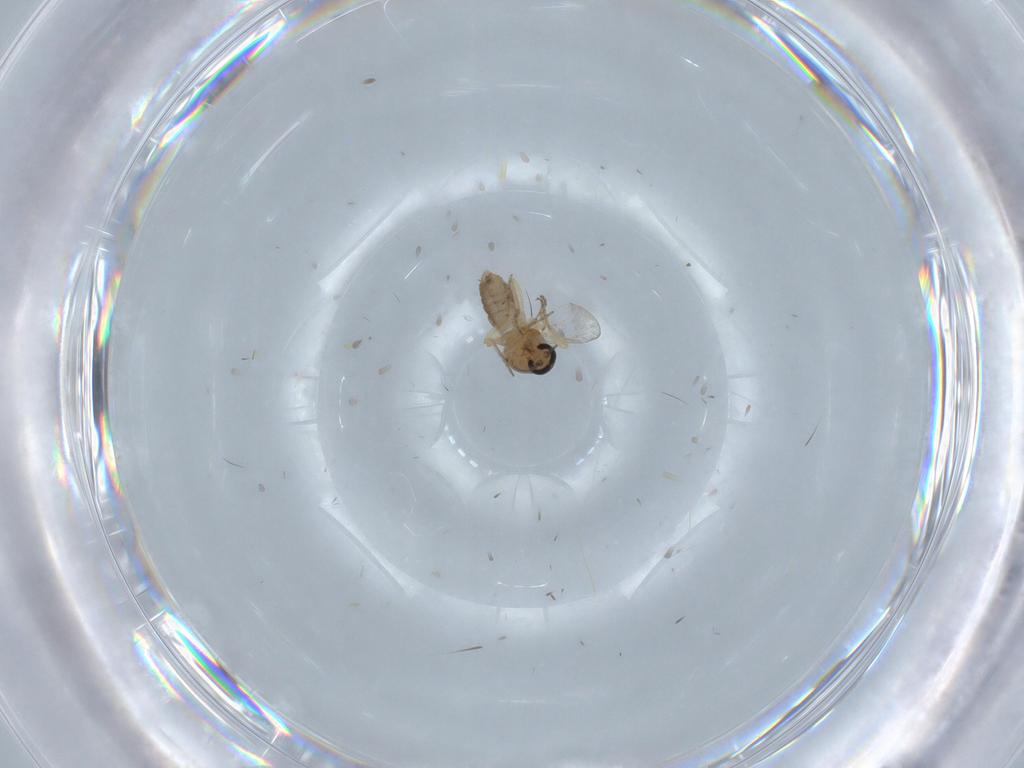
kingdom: Animalia
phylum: Arthropoda
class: Insecta
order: Diptera
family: Ceratopogonidae
